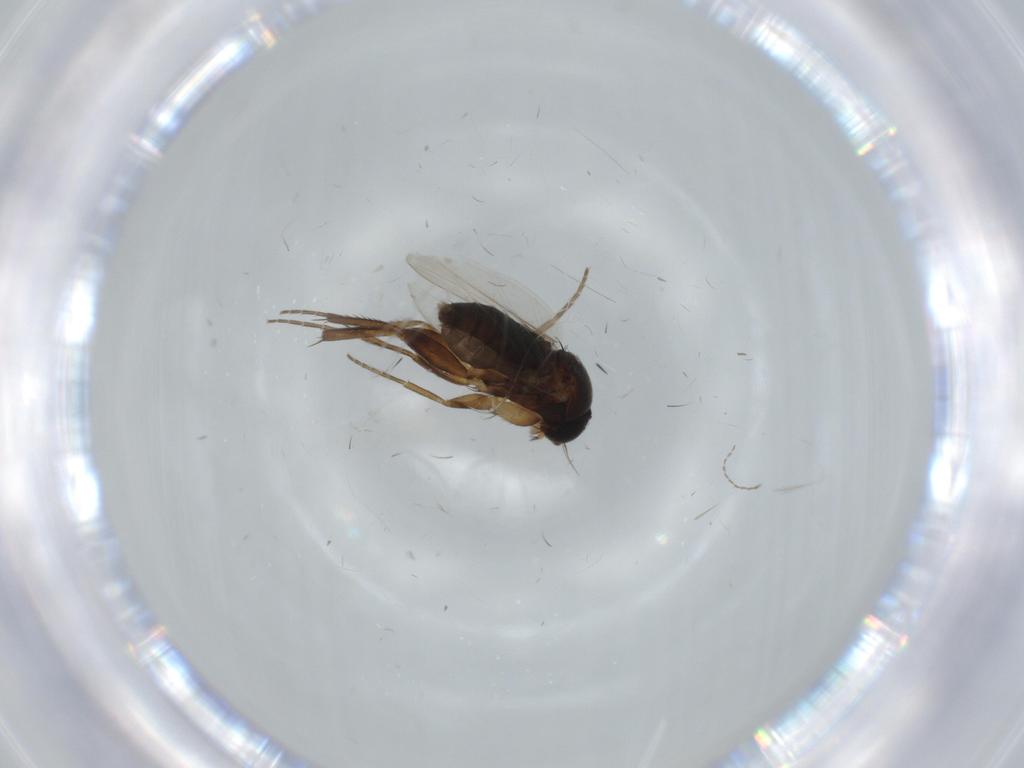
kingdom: Animalia
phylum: Arthropoda
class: Insecta
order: Diptera
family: Phoridae
